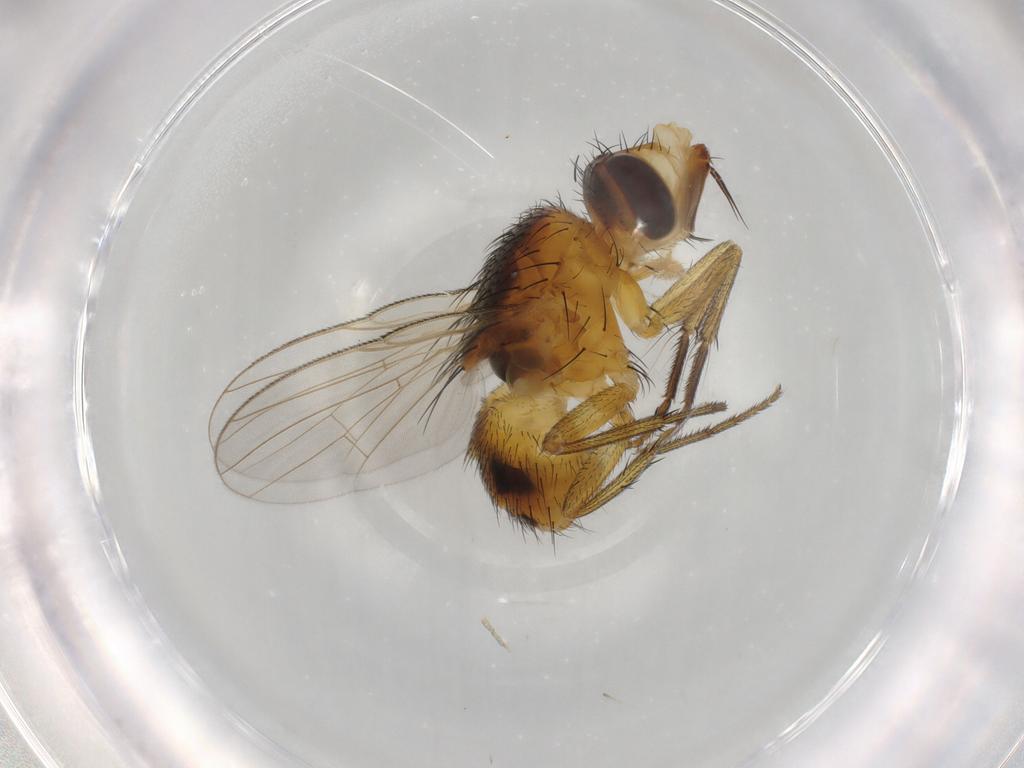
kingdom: Animalia
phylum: Arthropoda
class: Insecta
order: Diptera
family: Muscidae
